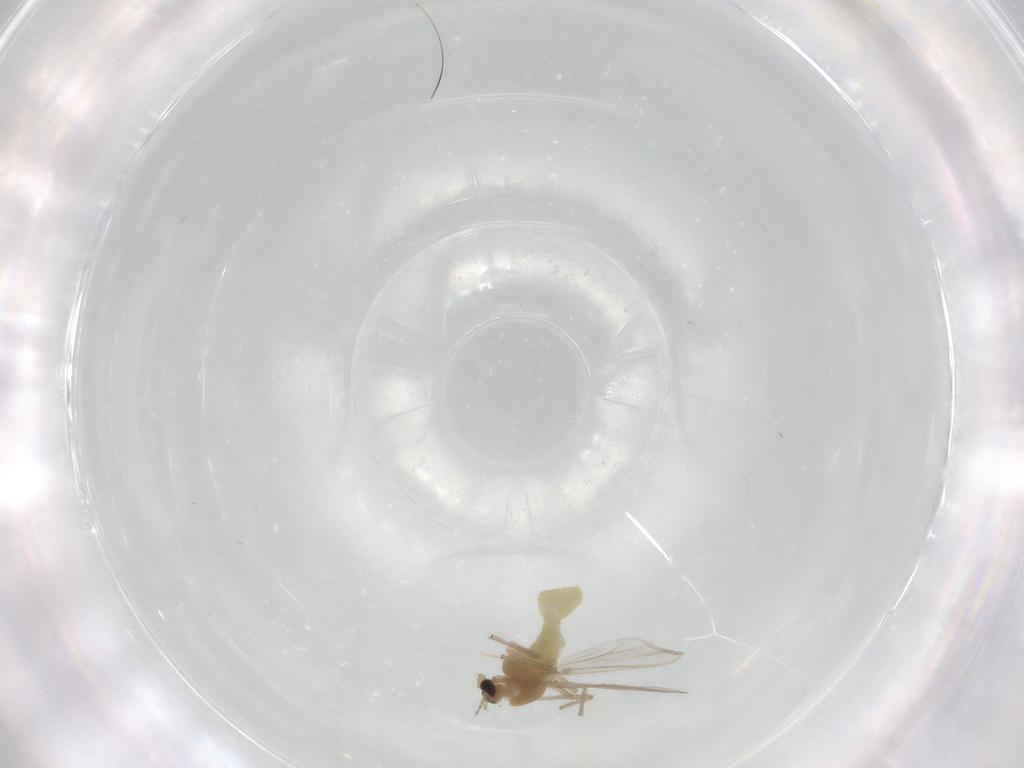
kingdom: Animalia
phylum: Arthropoda
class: Insecta
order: Diptera
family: Chironomidae
